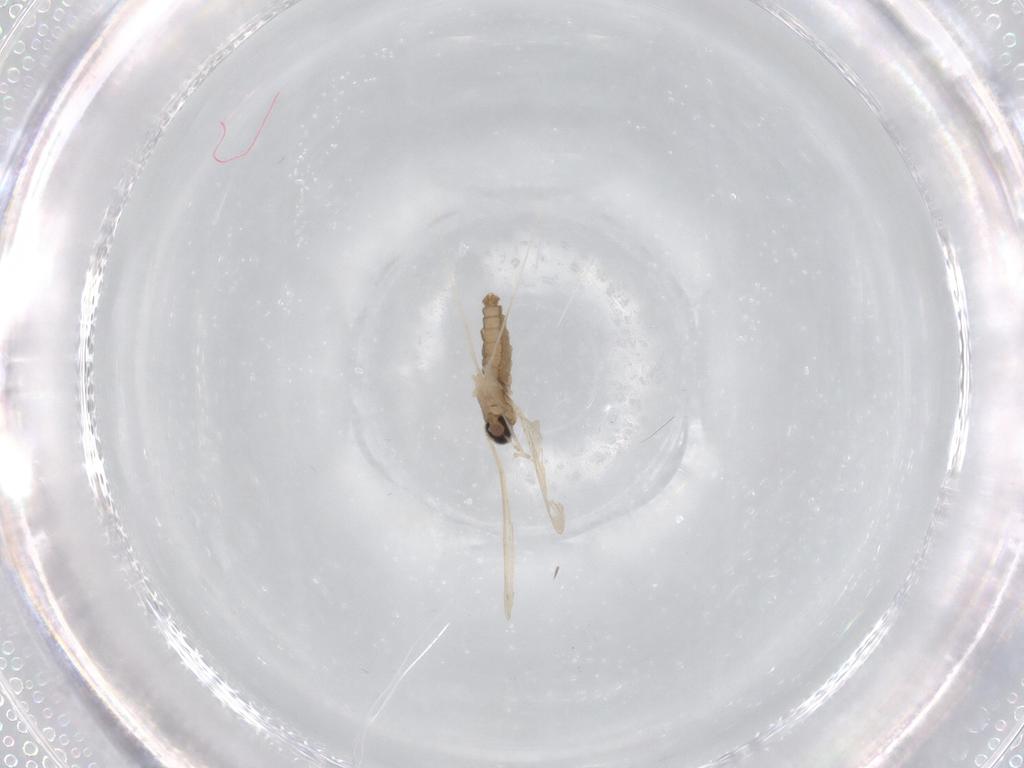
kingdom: Animalia
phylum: Arthropoda
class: Insecta
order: Diptera
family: Cecidomyiidae
